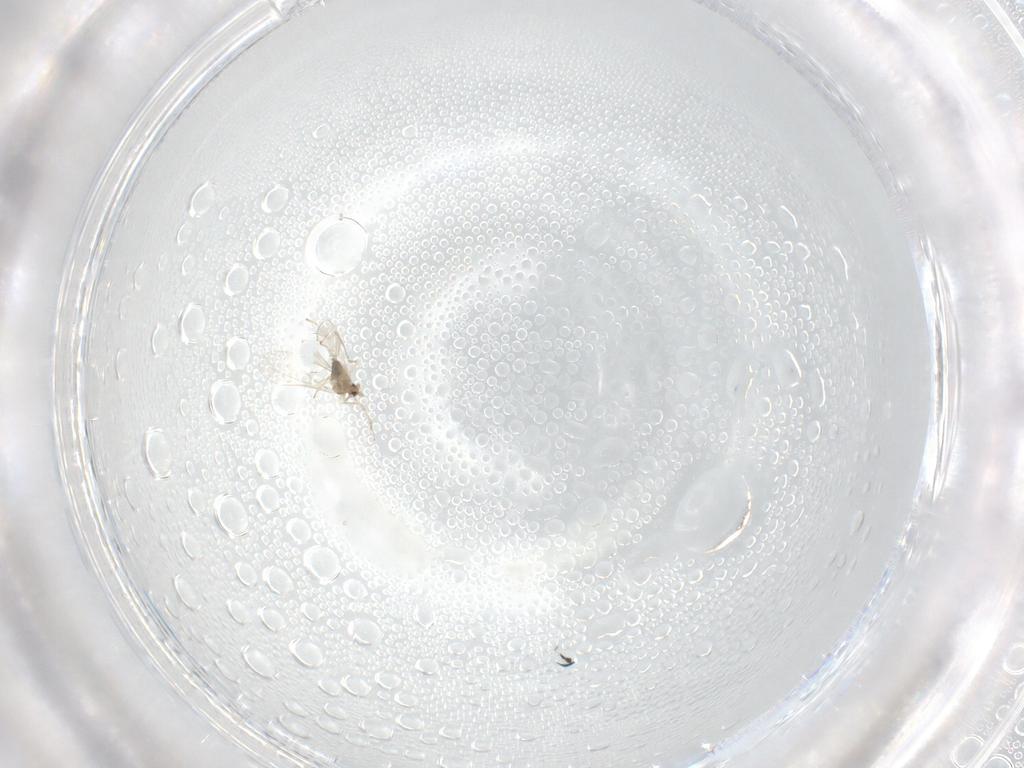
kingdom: Animalia
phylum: Arthropoda
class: Insecta
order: Diptera
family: Cecidomyiidae
